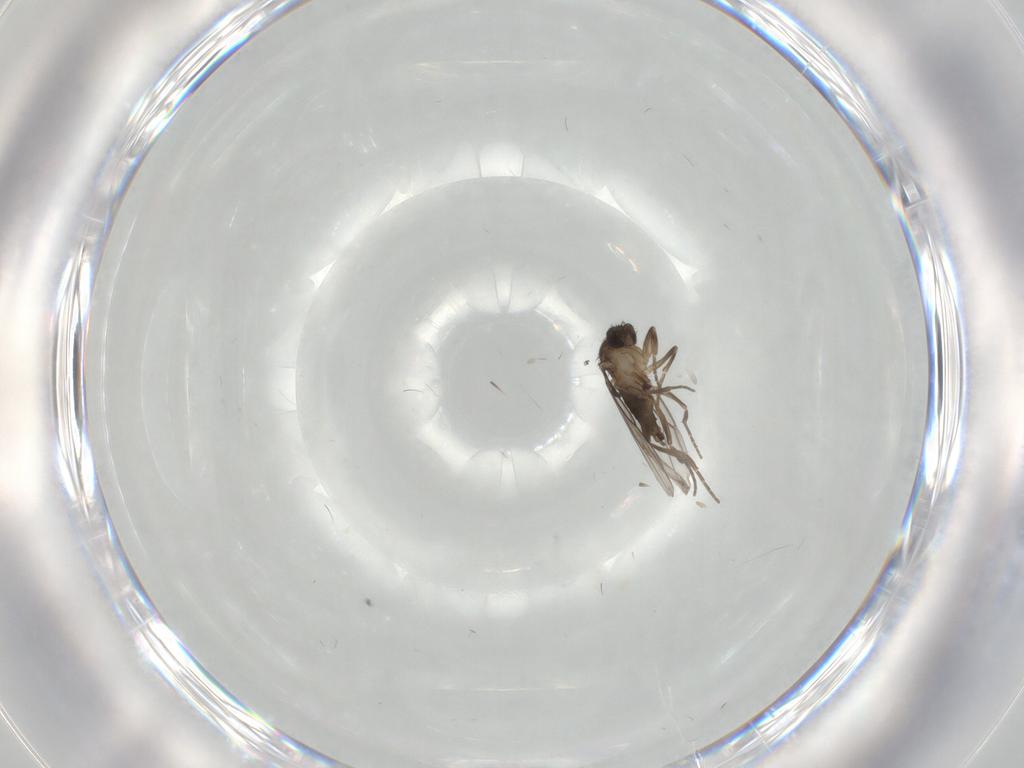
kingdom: Animalia
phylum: Arthropoda
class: Insecta
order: Diptera
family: Phoridae
